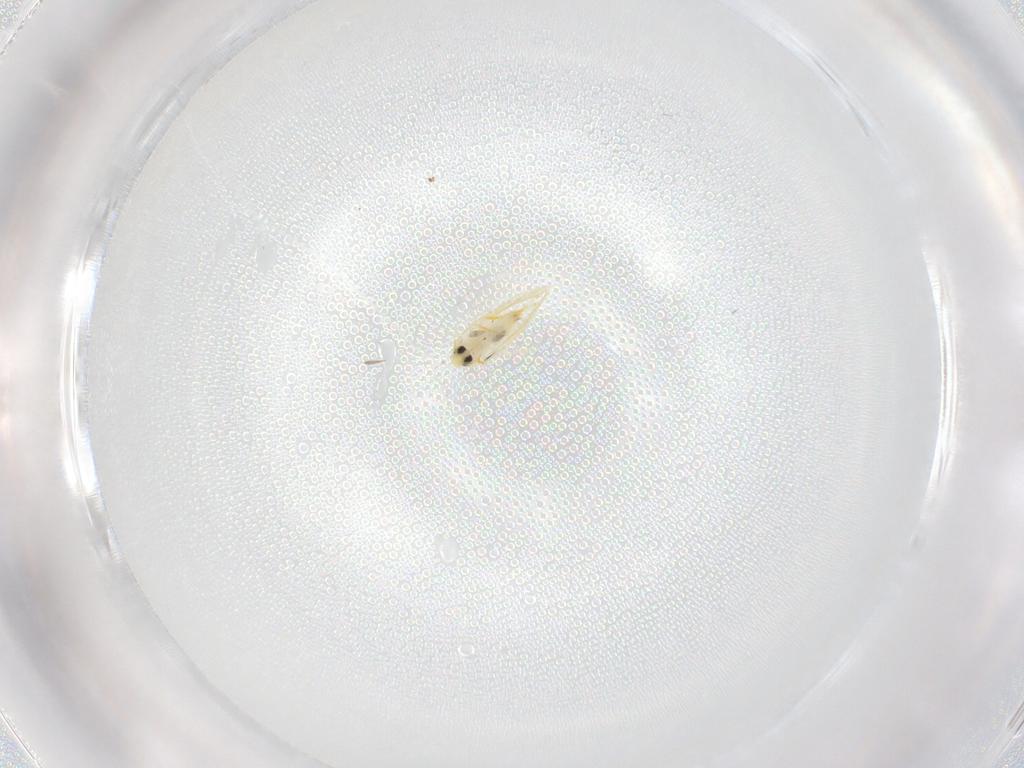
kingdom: Animalia
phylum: Arthropoda
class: Insecta
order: Hemiptera
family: Aleyrodidae
